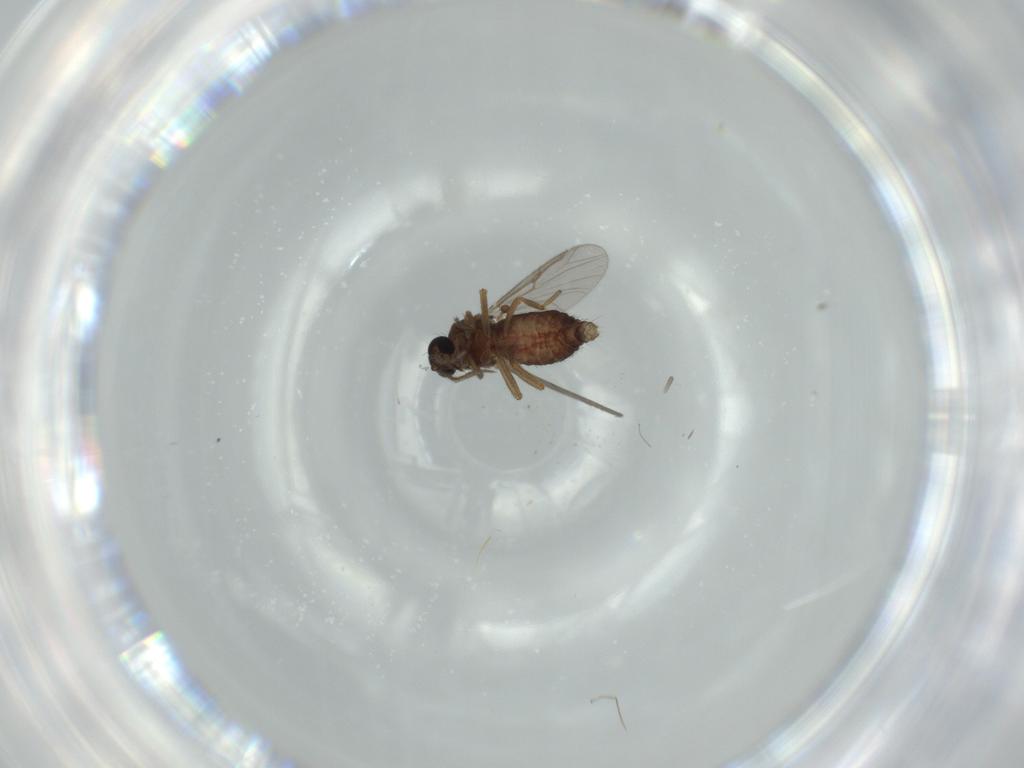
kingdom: Animalia
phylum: Arthropoda
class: Insecta
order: Diptera
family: Ceratopogonidae
